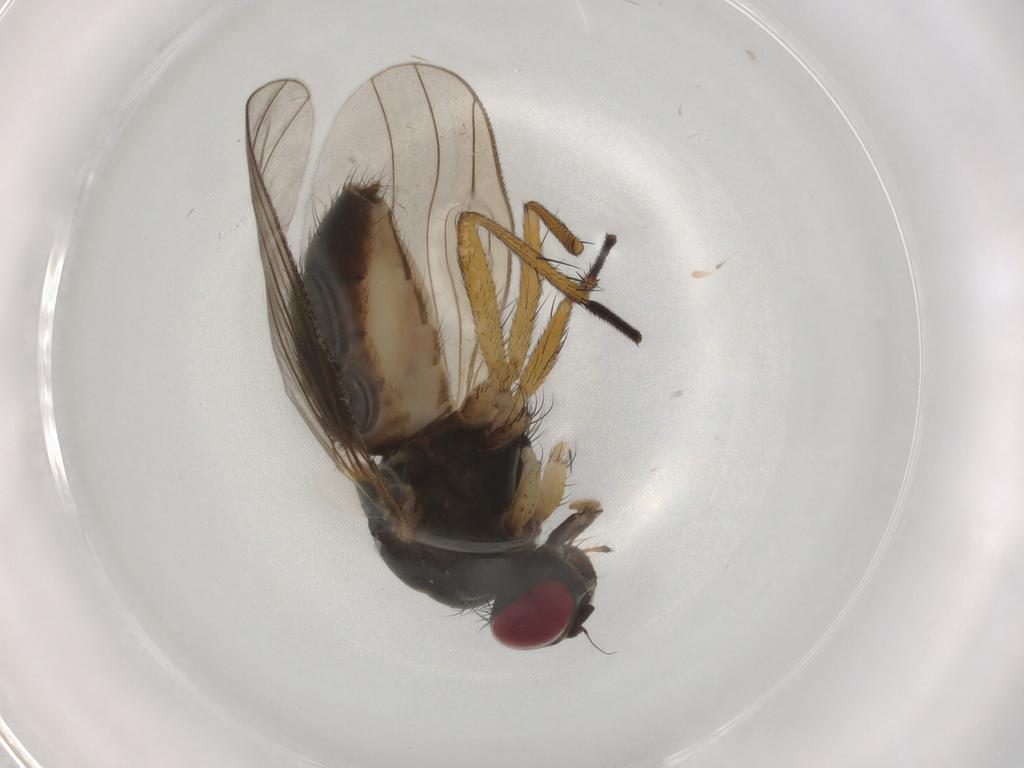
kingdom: Animalia
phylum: Arthropoda
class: Insecta
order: Diptera
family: Muscidae
